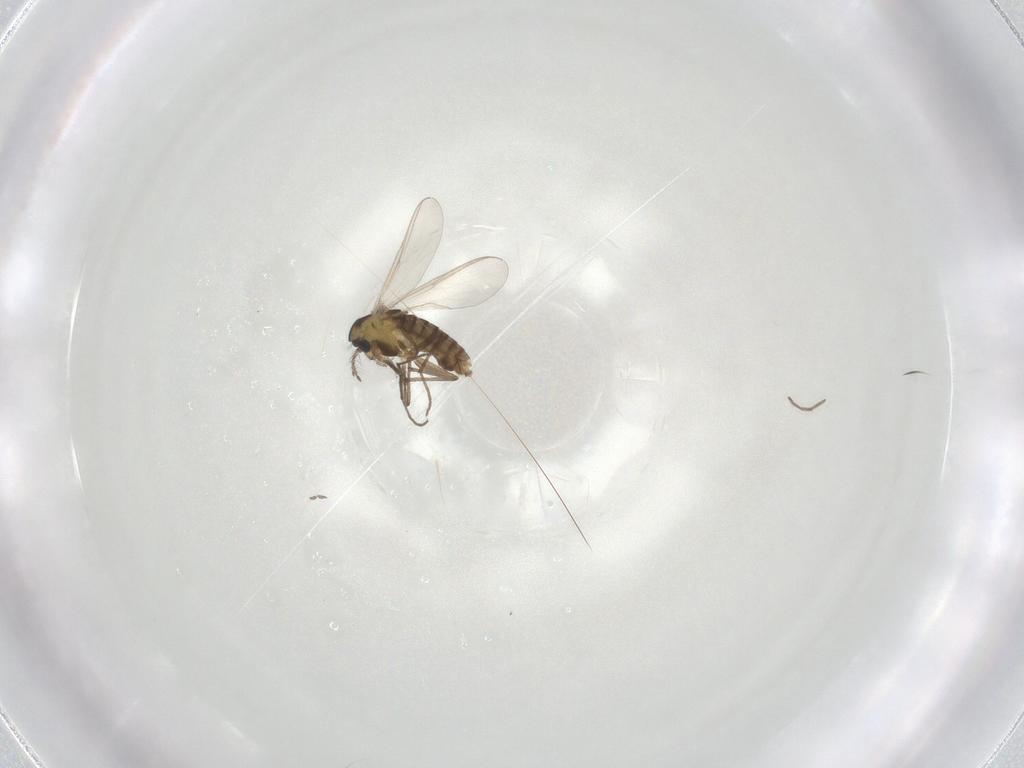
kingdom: Animalia
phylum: Arthropoda
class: Insecta
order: Diptera
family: Chironomidae
